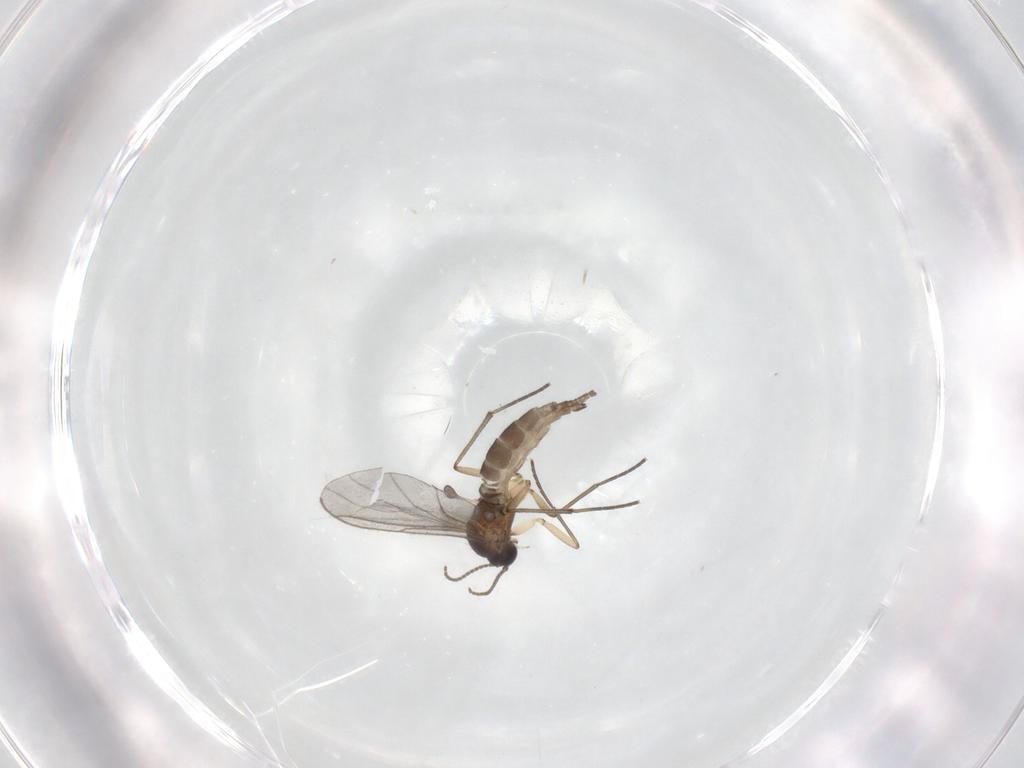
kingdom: Animalia
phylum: Arthropoda
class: Insecta
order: Diptera
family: Sciaridae
